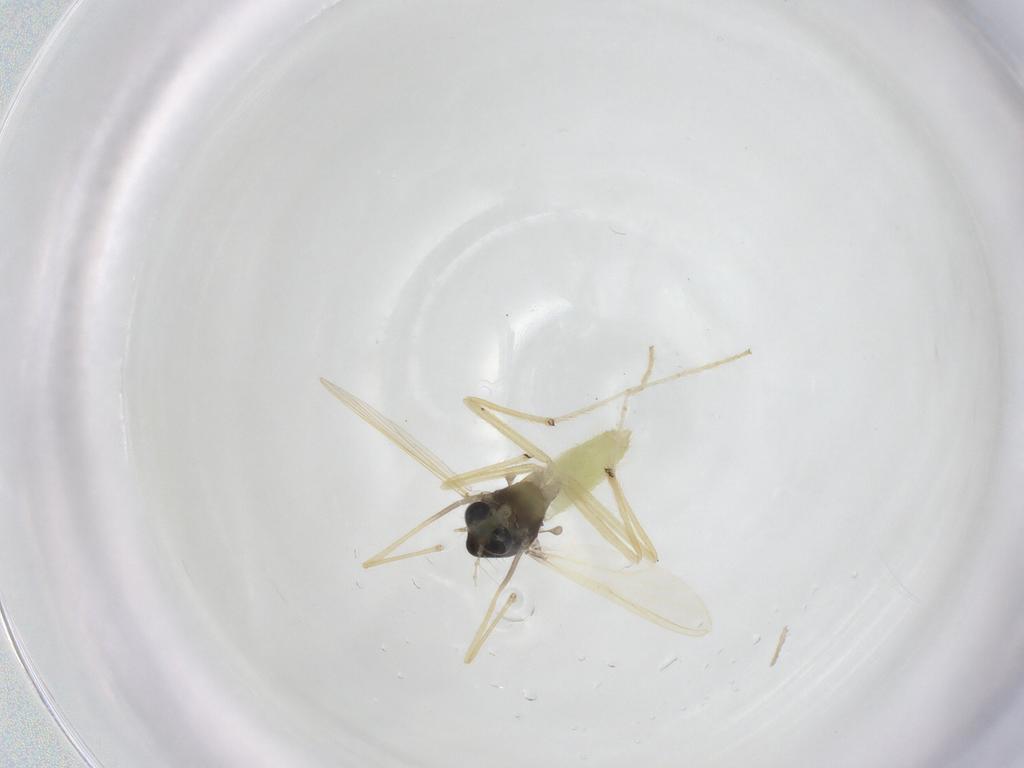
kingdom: Animalia
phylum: Arthropoda
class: Insecta
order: Diptera
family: Chironomidae
